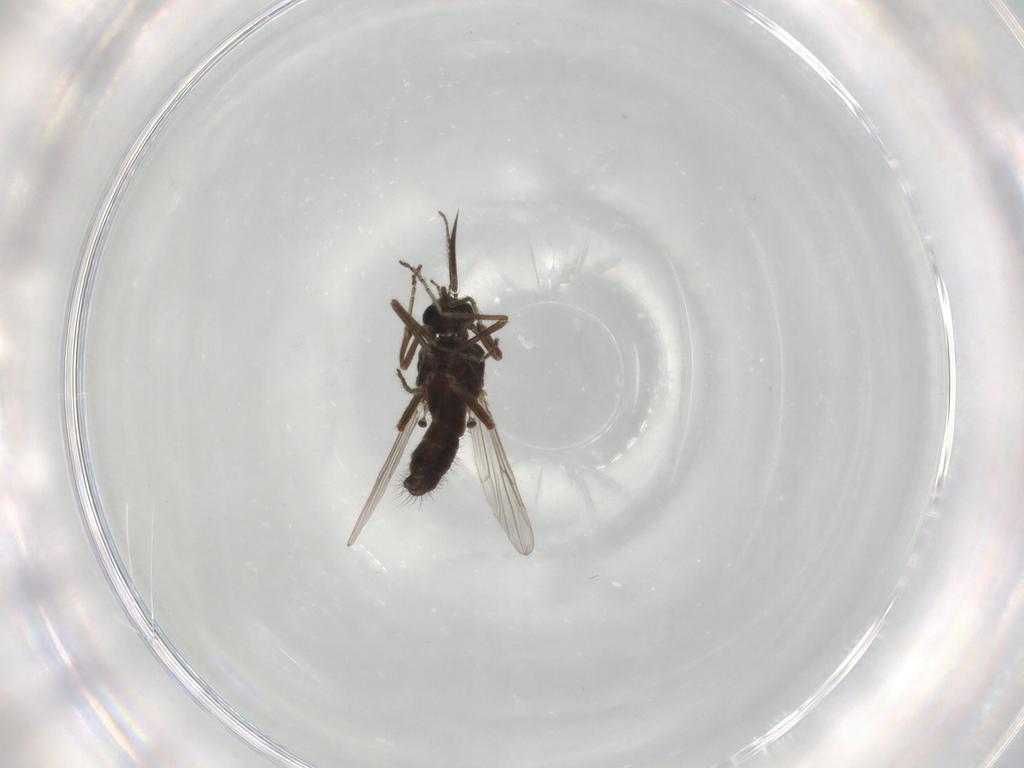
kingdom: Animalia
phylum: Arthropoda
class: Insecta
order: Diptera
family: Ceratopogonidae
